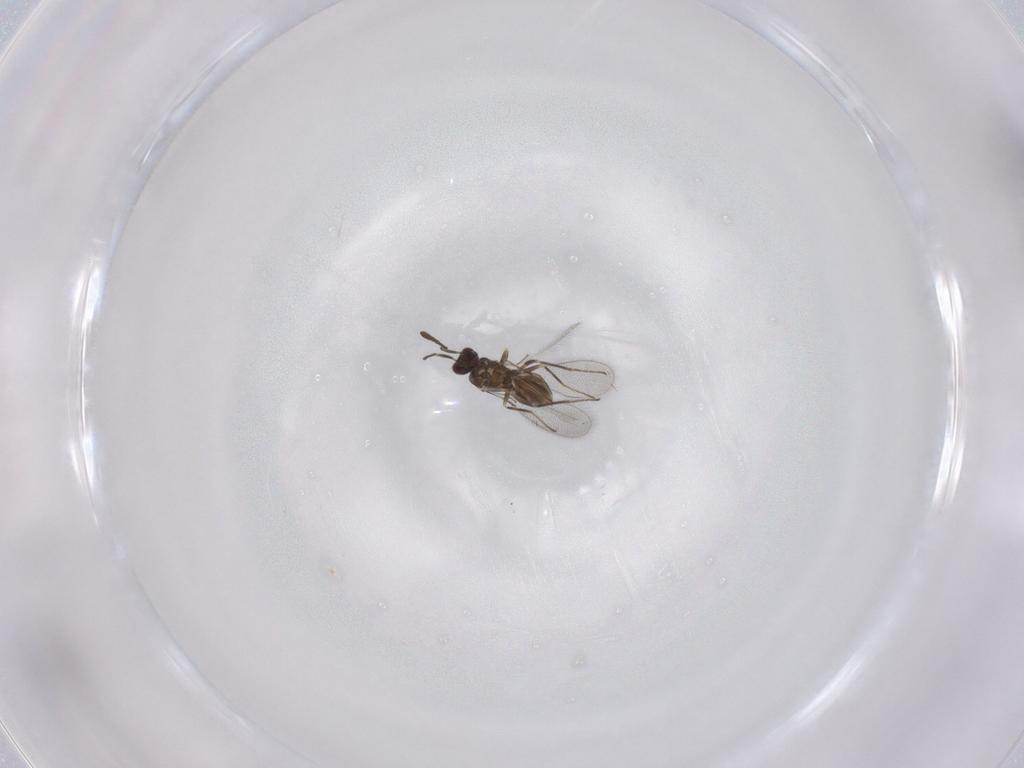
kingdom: Animalia
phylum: Arthropoda
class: Insecta
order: Hymenoptera
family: Mymaridae
